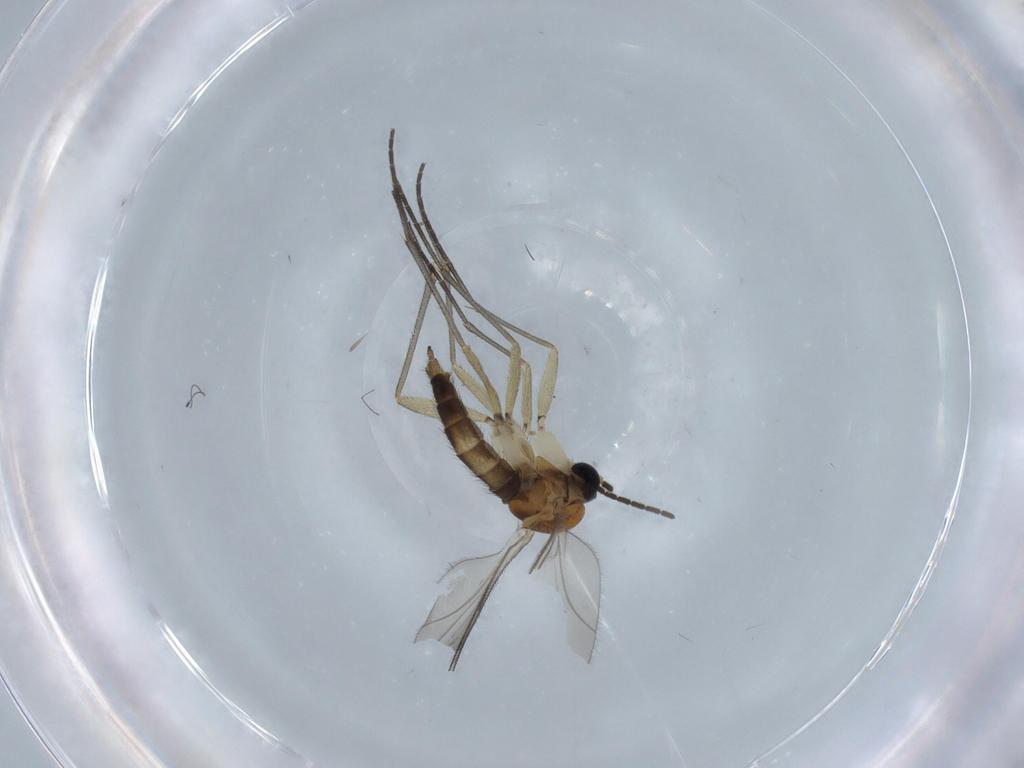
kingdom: Animalia
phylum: Arthropoda
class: Insecta
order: Diptera
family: Sciaridae
